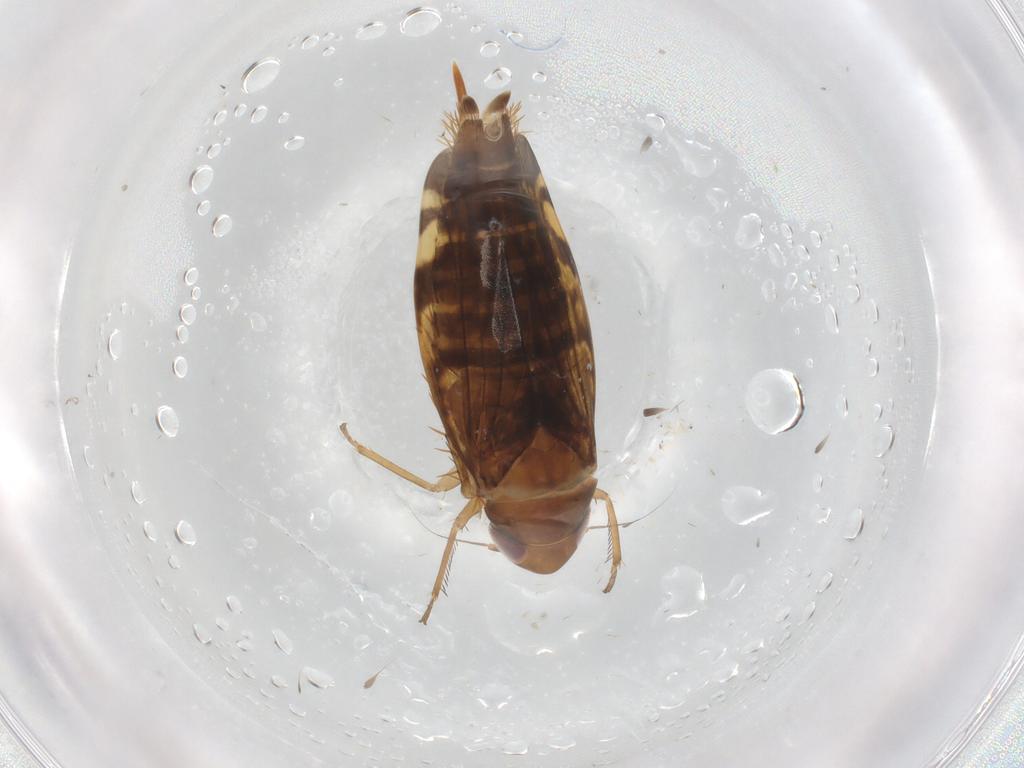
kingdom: Animalia
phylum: Arthropoda
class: Insecta
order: Hemiptera
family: Cicadellidae
